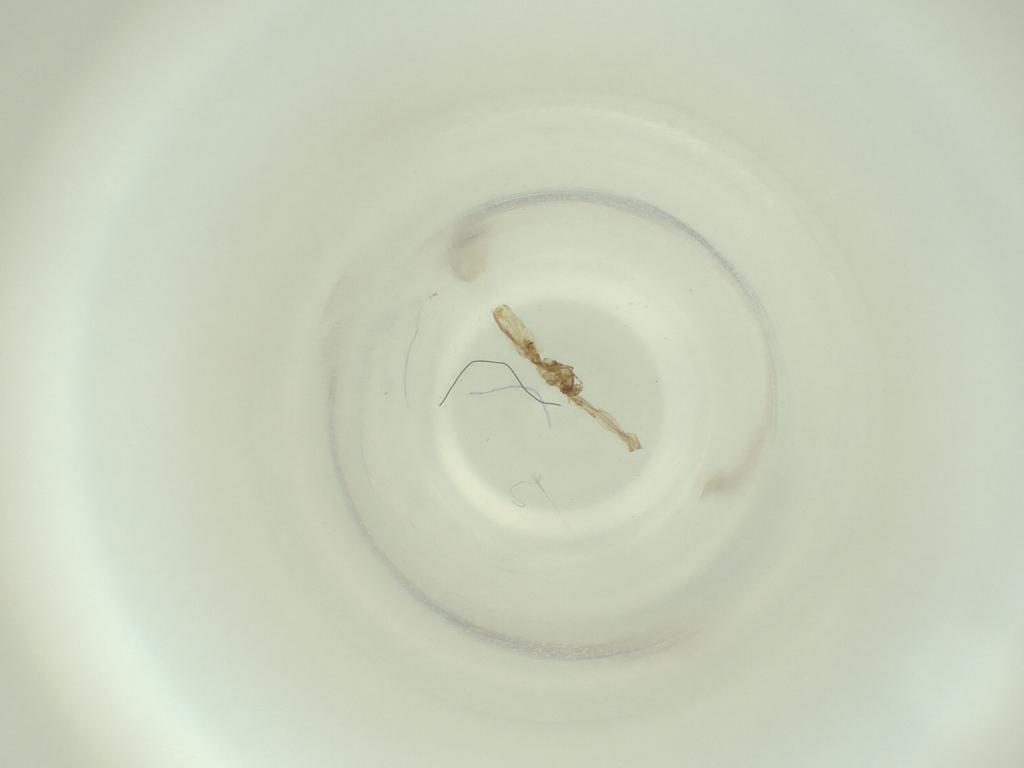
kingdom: Animalia
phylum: Arthropoda
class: Insecta
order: Diptera
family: Cecidomyiidae
